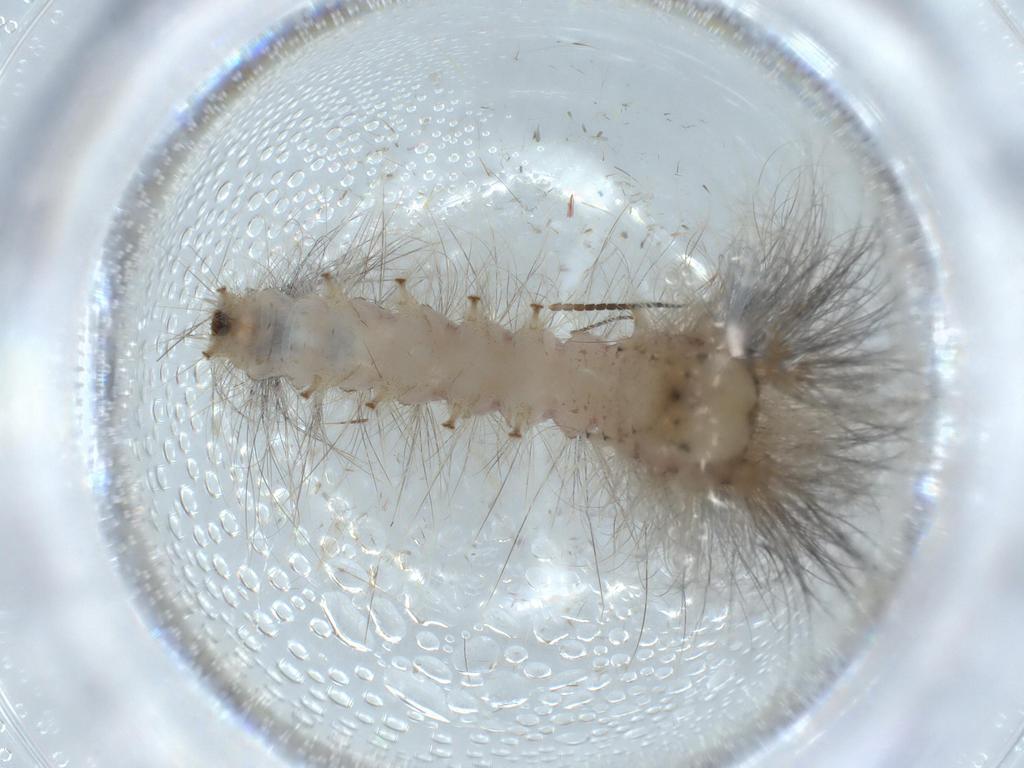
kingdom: Animalia
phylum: Arthropoda
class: Insecta
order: Lepidoptera
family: Apatelodidae
